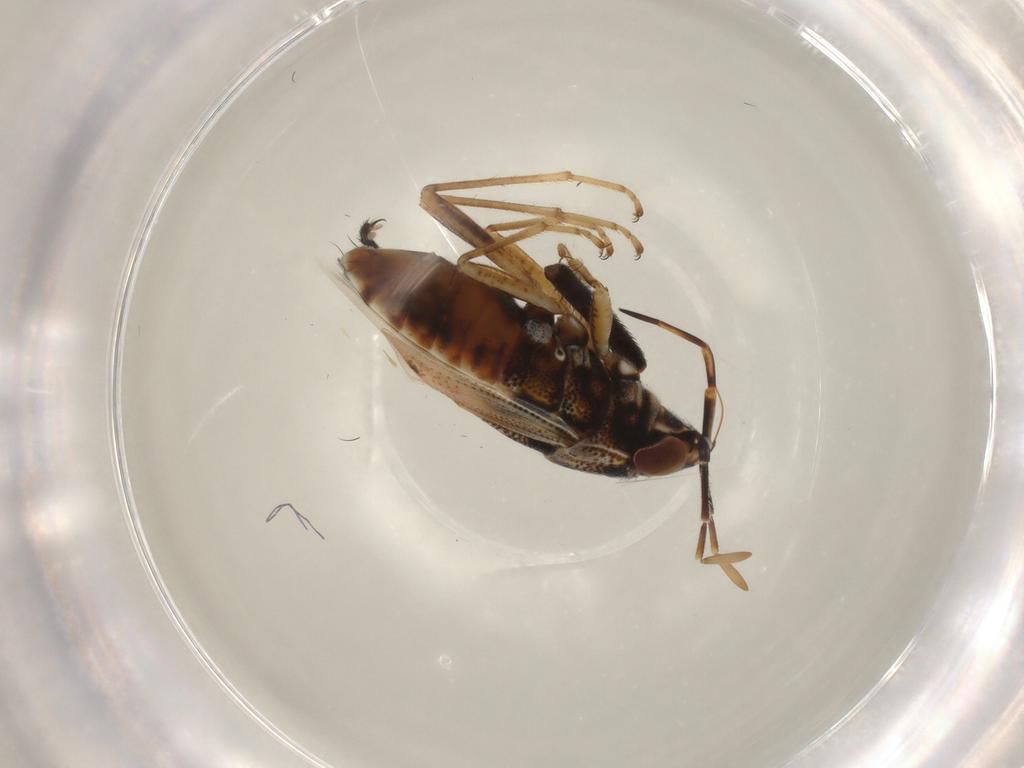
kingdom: Animalia
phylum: Arthropoda
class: Insecta
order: Hemiptera
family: Geocoridae
